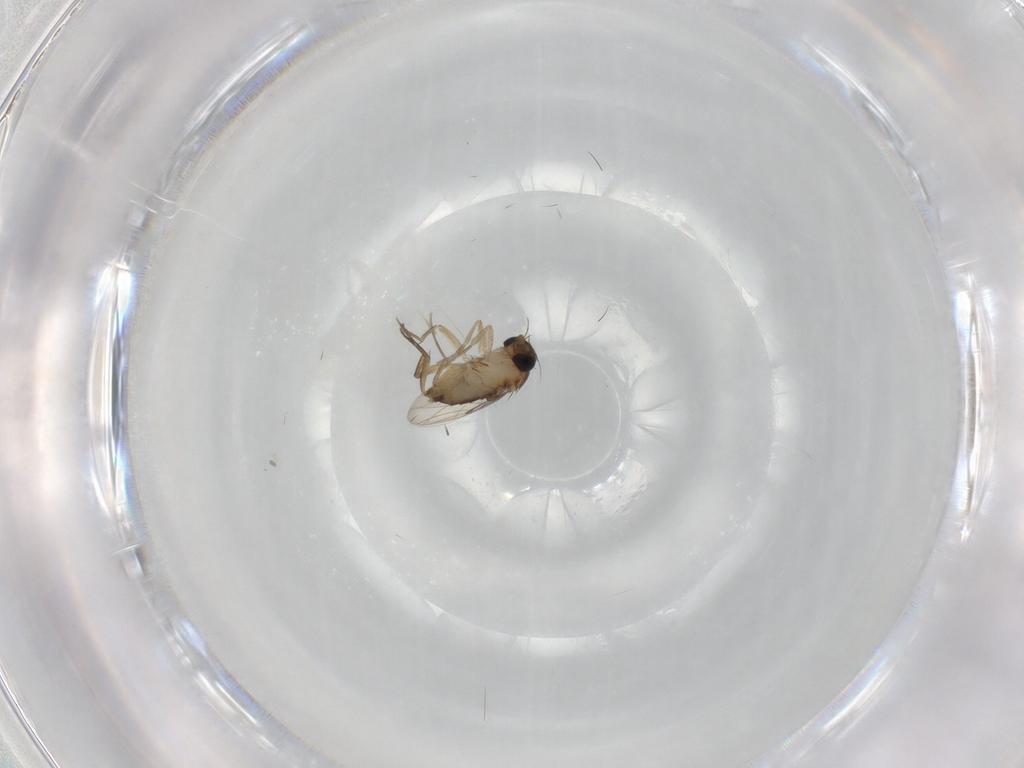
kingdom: Animalia
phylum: Arthropoda
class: Insecta
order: Diptera
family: Phoridae
